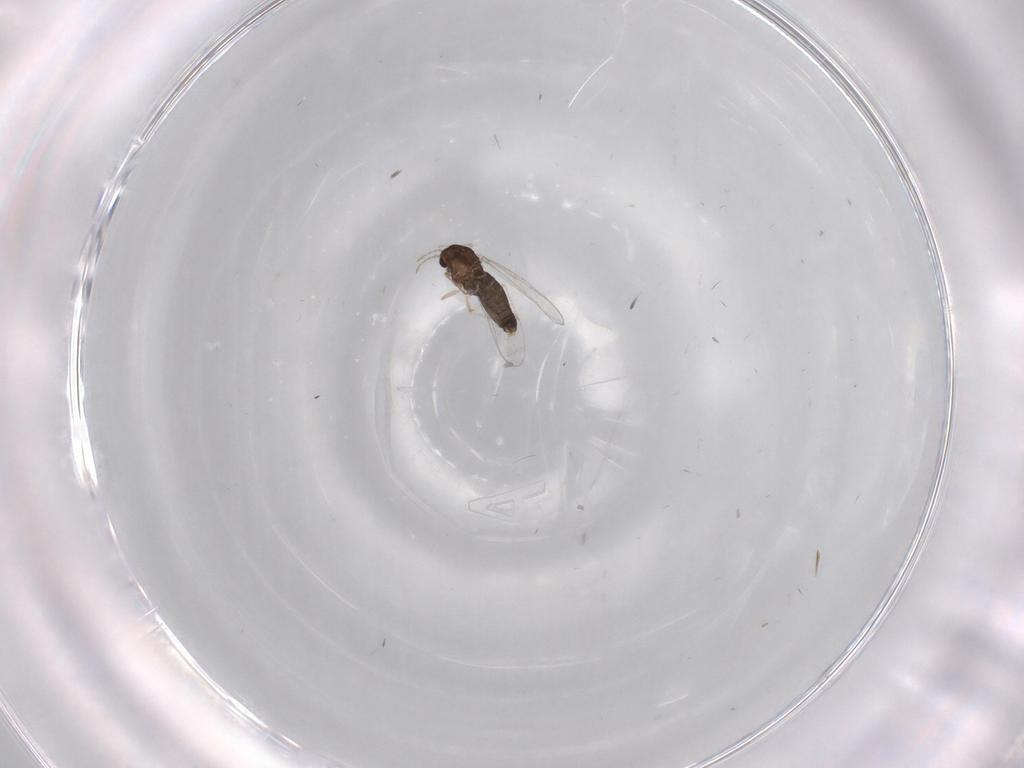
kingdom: Animalia
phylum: Arthropoda
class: Insecta
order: Diptera
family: Chironomidae
